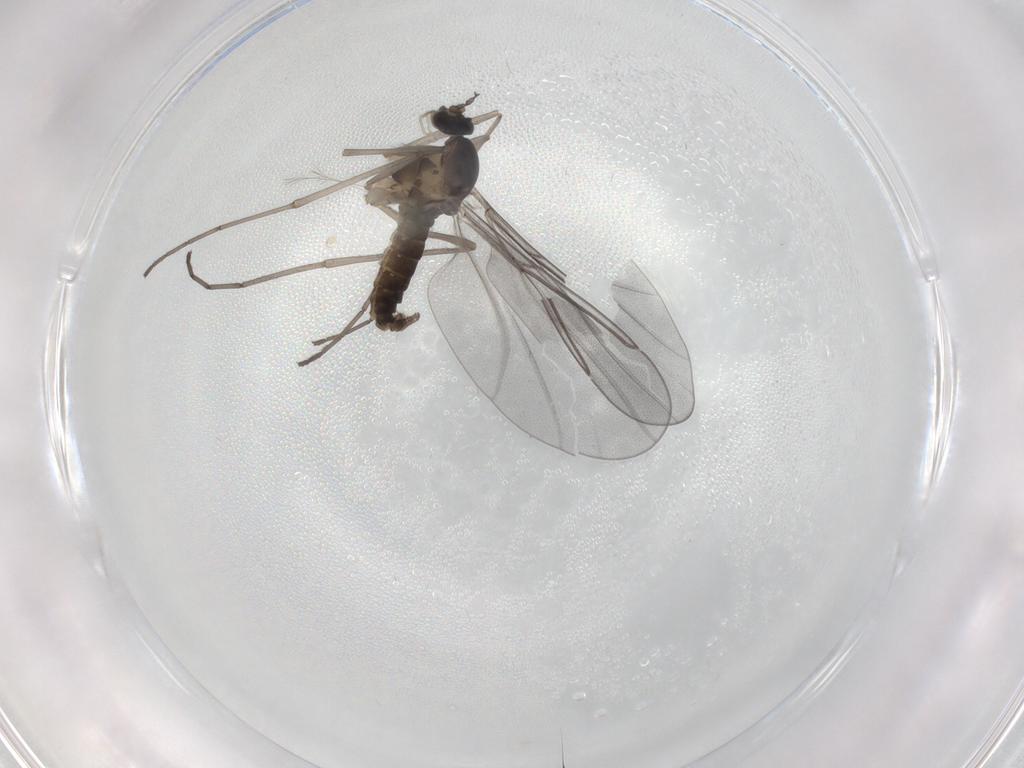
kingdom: Animalia
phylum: Arthropoda
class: Insecta
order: Diptera
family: Cecidomyiidae
